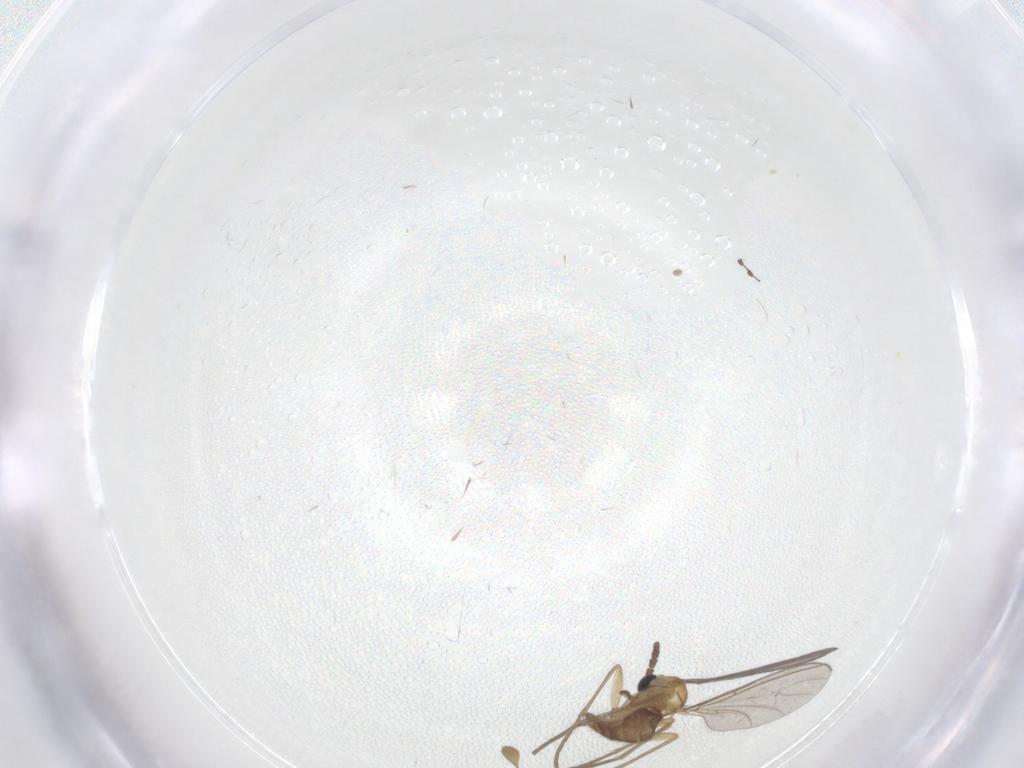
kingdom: Animalia
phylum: Arthropoda
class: Insecta
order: Diptera
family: Sciaridae
